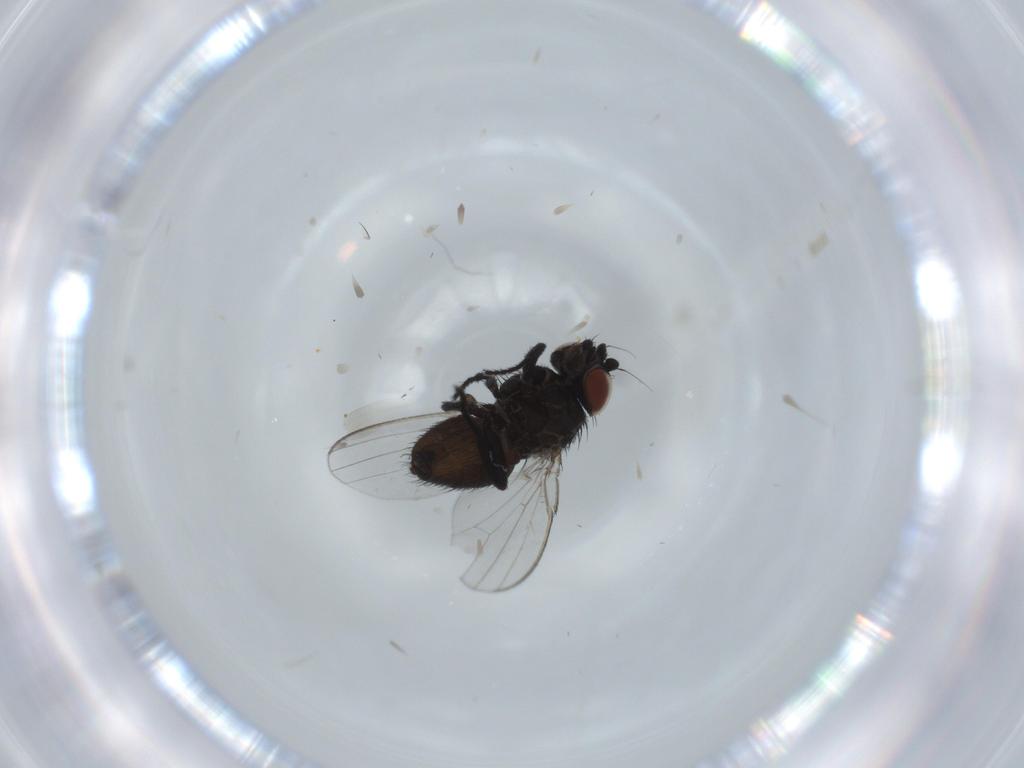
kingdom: Animalia
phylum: Arthropoda
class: Insecta
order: Diptera
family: Milichiidae
